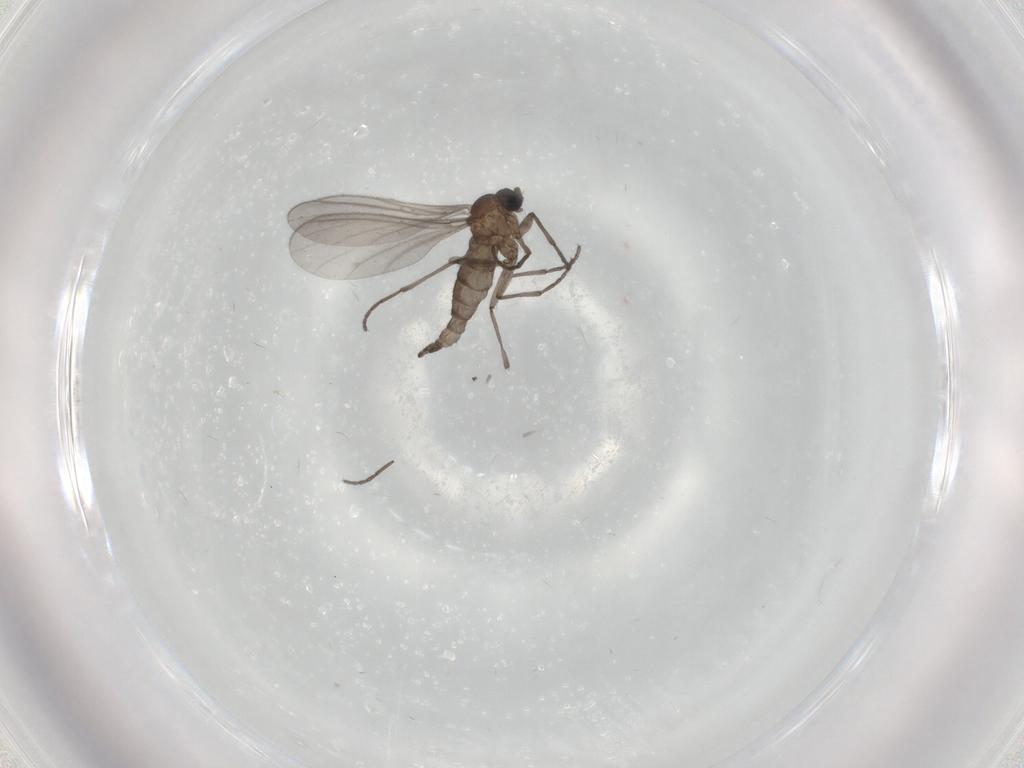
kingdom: Animalia
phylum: Arthropoda
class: Insecta
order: Diptera
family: Sciaridae
